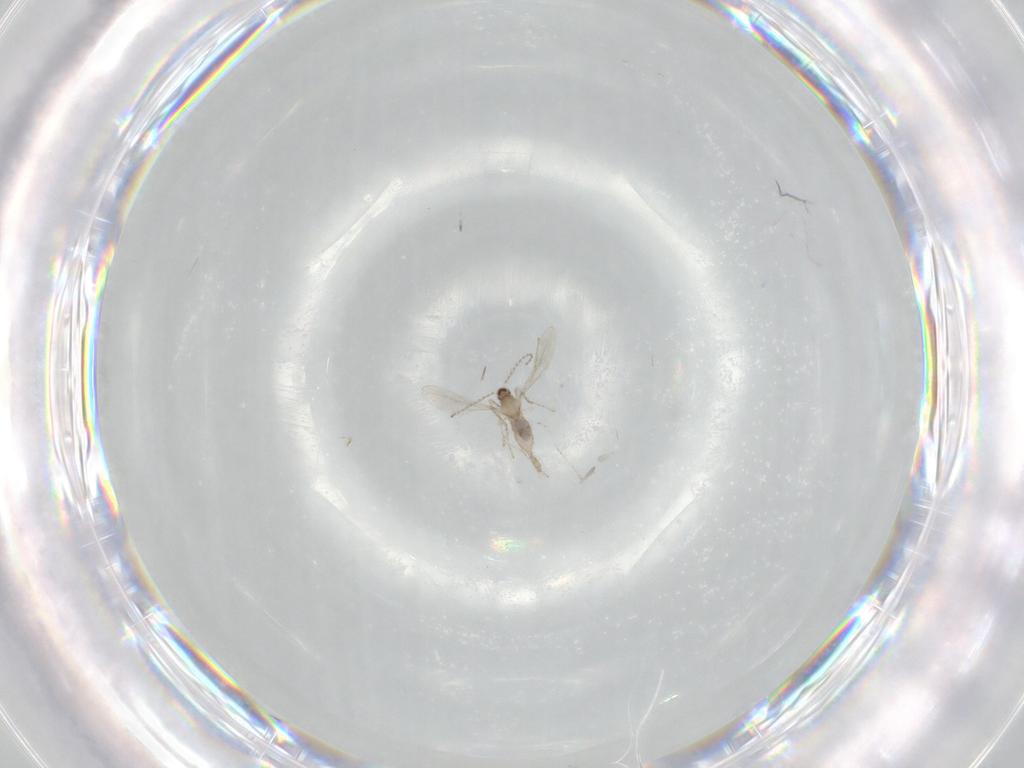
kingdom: Animalia
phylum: Arthropoda
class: Insecta
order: Diptera
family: Cecidomyiidae
